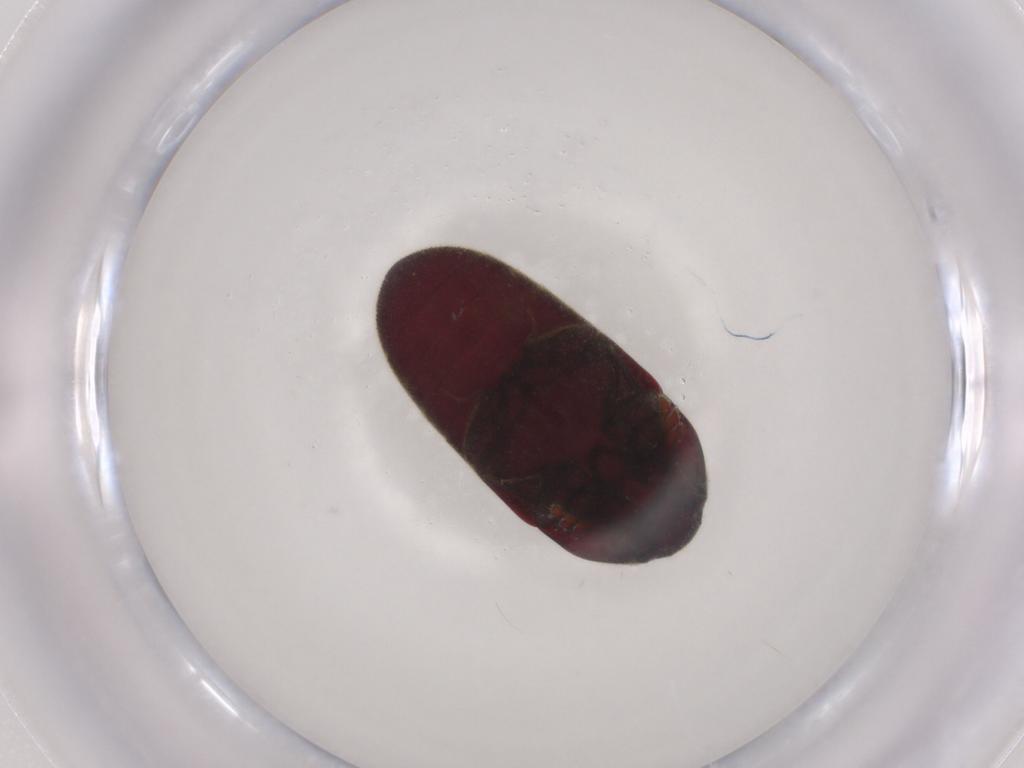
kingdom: Animalia
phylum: Arthropoda
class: Insecta
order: Coleoptera
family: Throscidae
